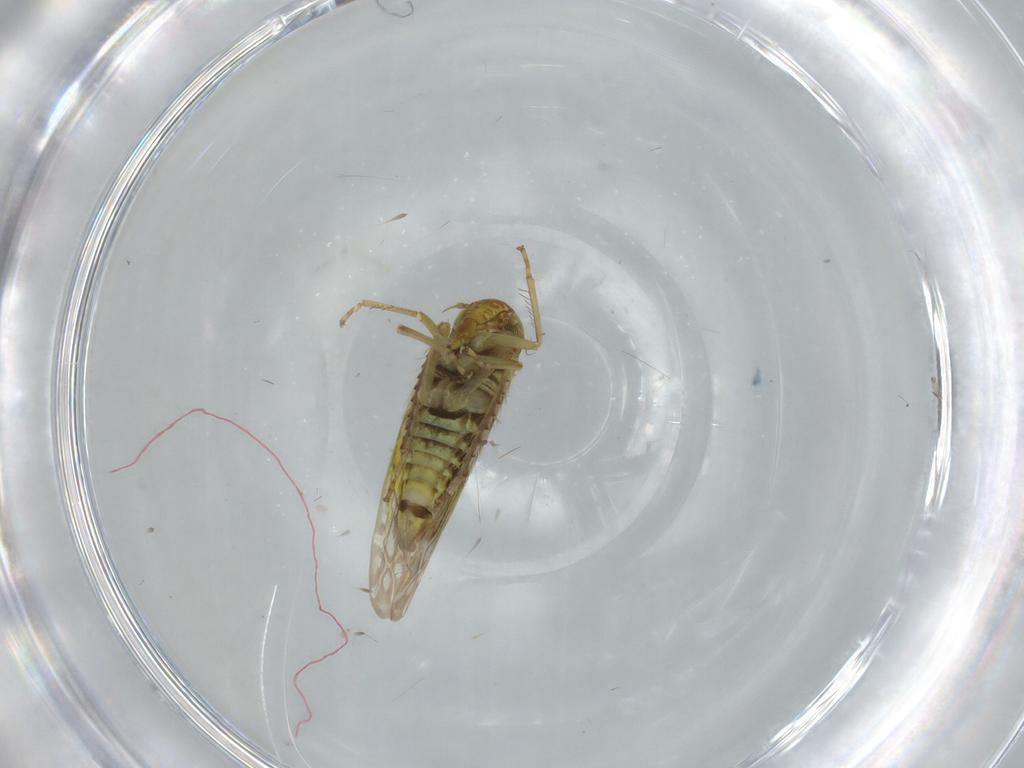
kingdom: Animalia
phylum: Arthropoda
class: Insecta
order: Hemiptera
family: Cicadellidae
